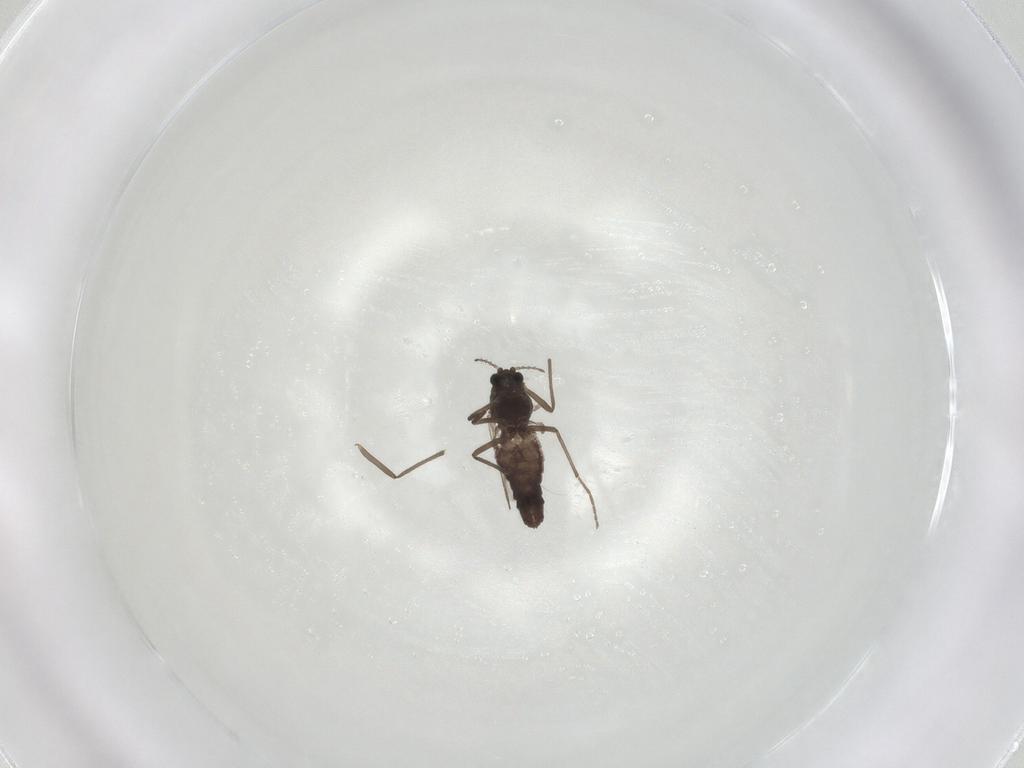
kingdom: Animalia
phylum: Arthropoda
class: Insecta
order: Diptera
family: Chironomidae
